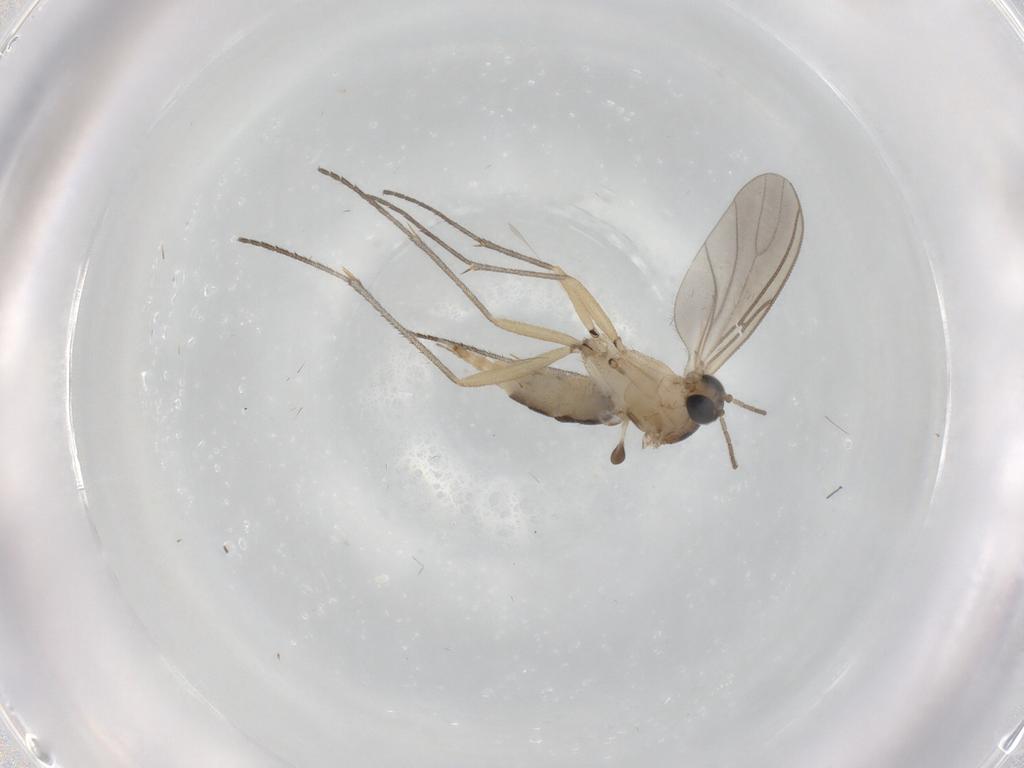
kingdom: Animalia
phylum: Arthropoda
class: Insecta
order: Diptera
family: Sciaridae
